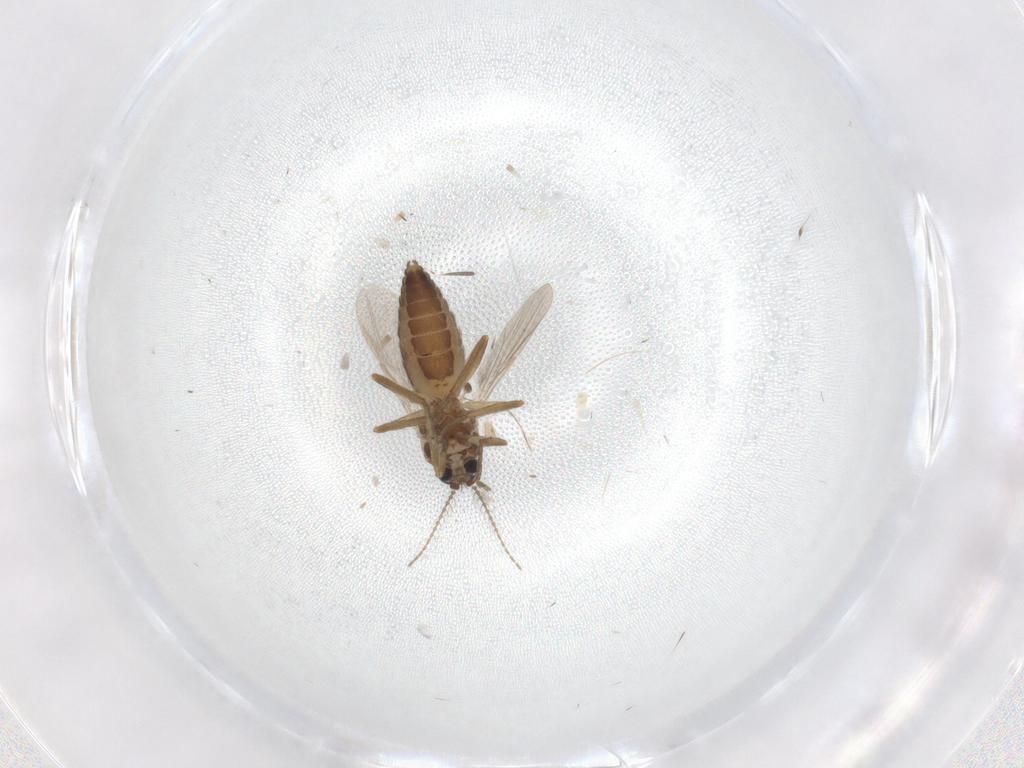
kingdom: Animalia
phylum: Arthropoda
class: Insecta
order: Diptera
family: Ceratopogonidae
